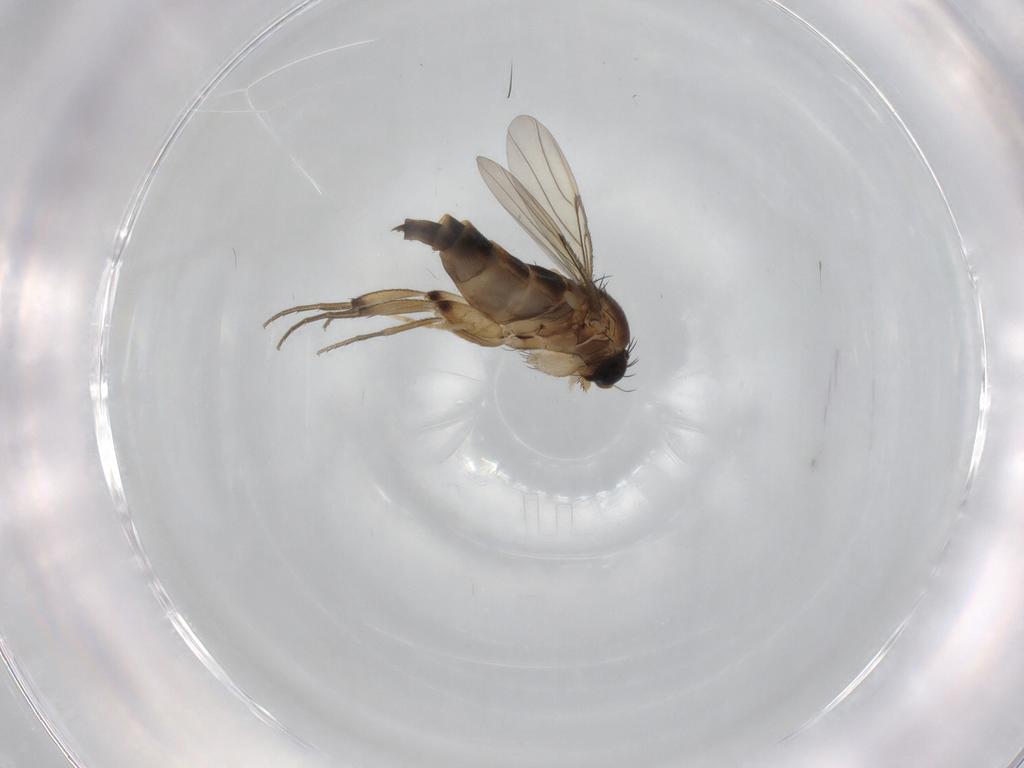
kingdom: Animalia
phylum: Arthropoda
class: Insecta
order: Diptera
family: Phoridae
